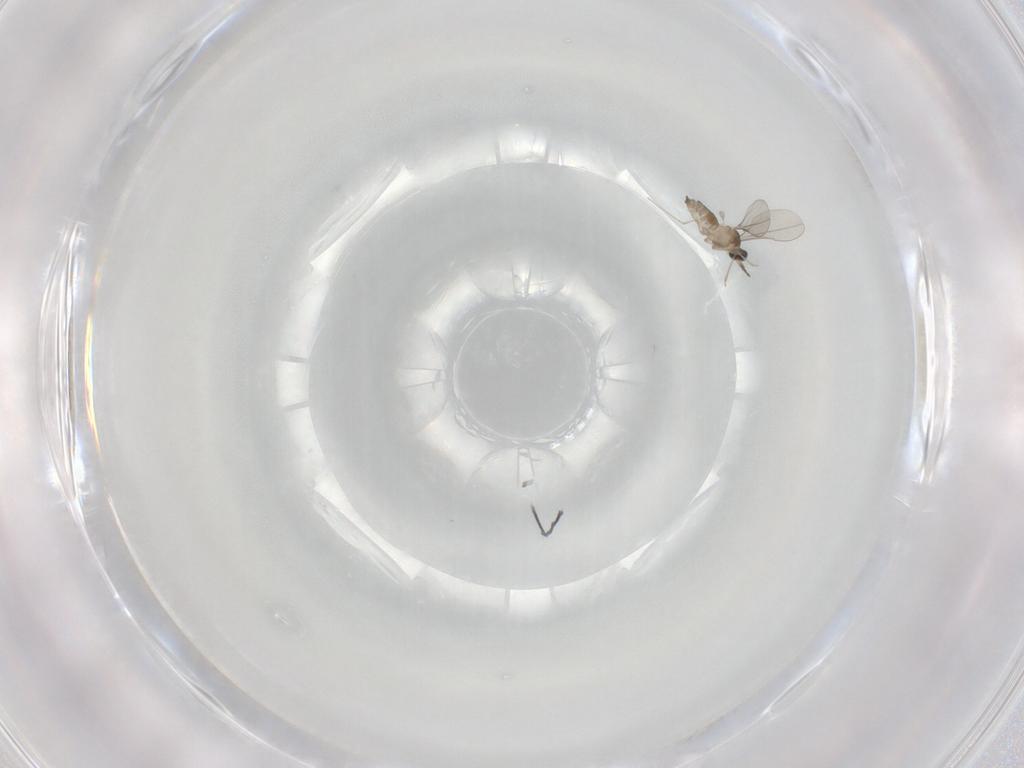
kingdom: Animalia
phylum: Arthropoda
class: Insecta
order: Diptera
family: Cecidomyiidae
